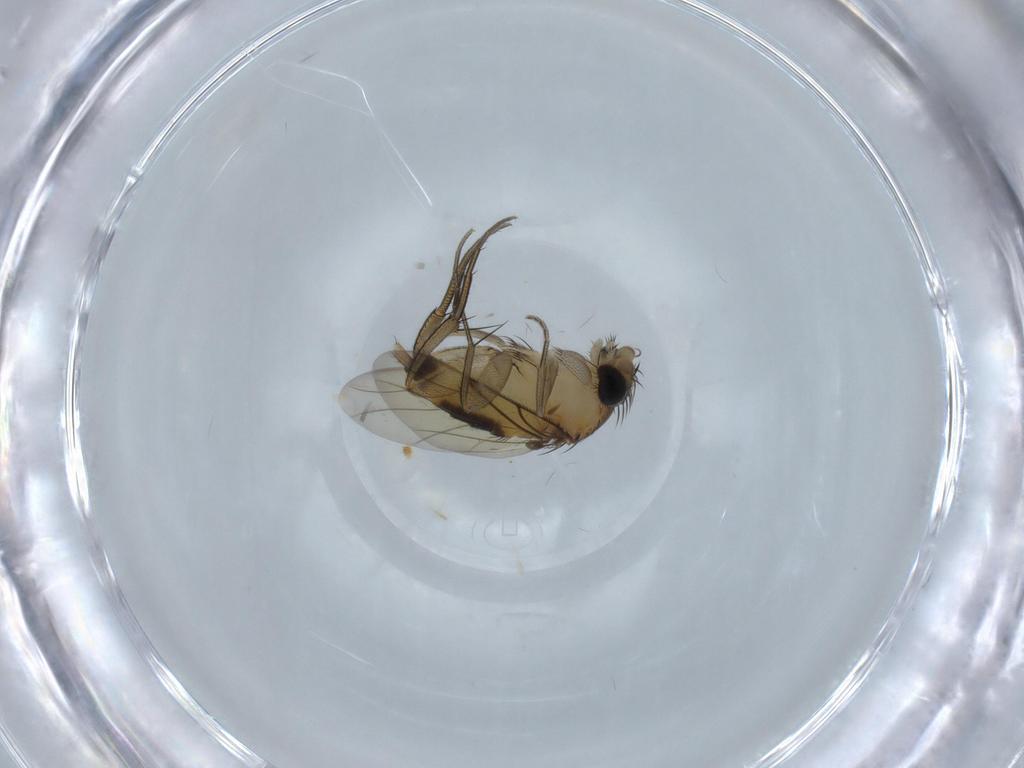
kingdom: Animalia
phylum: Arthropoda
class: Insecta
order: Diptera
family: Phoridae
